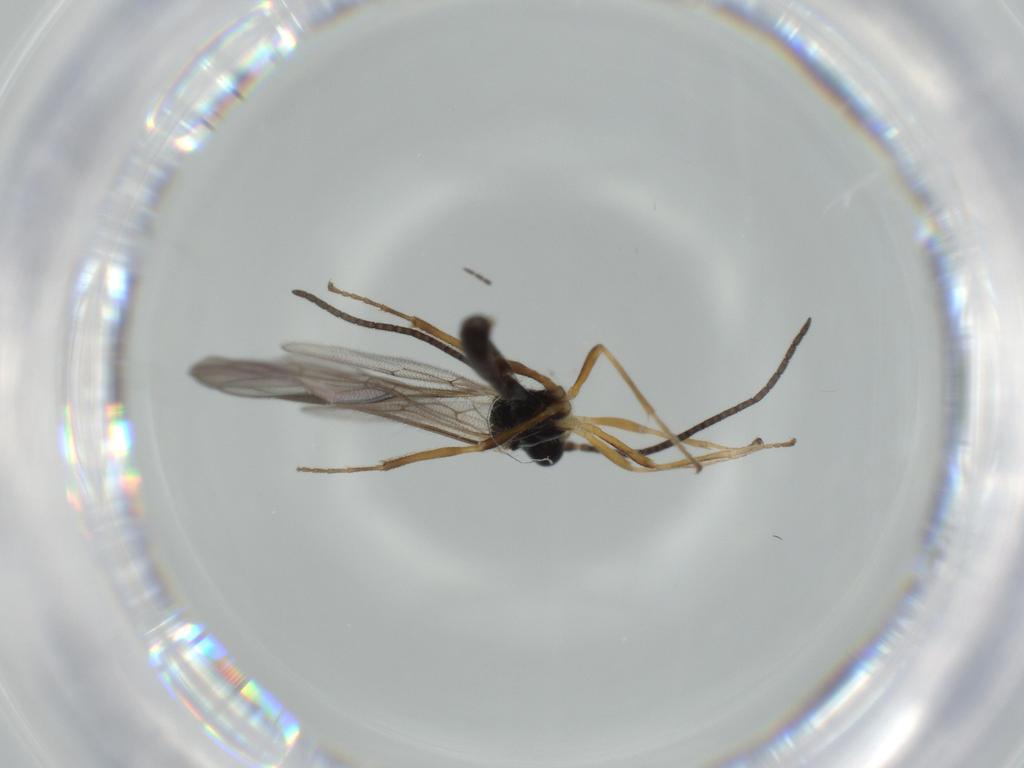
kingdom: Animalia
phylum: Arthropoda
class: Insecta
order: Hymenoptera
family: Ichneumonidae
